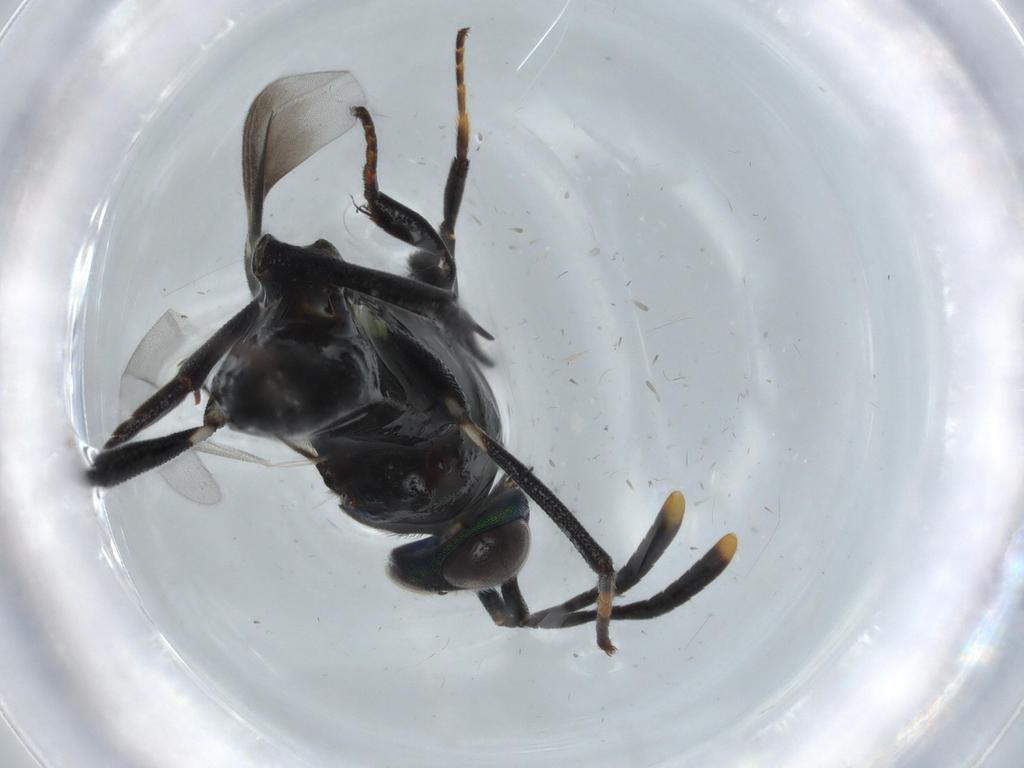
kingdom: Animalia
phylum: Arthropoda
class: Insecta
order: Hymenoptera
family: Eupelmidae
